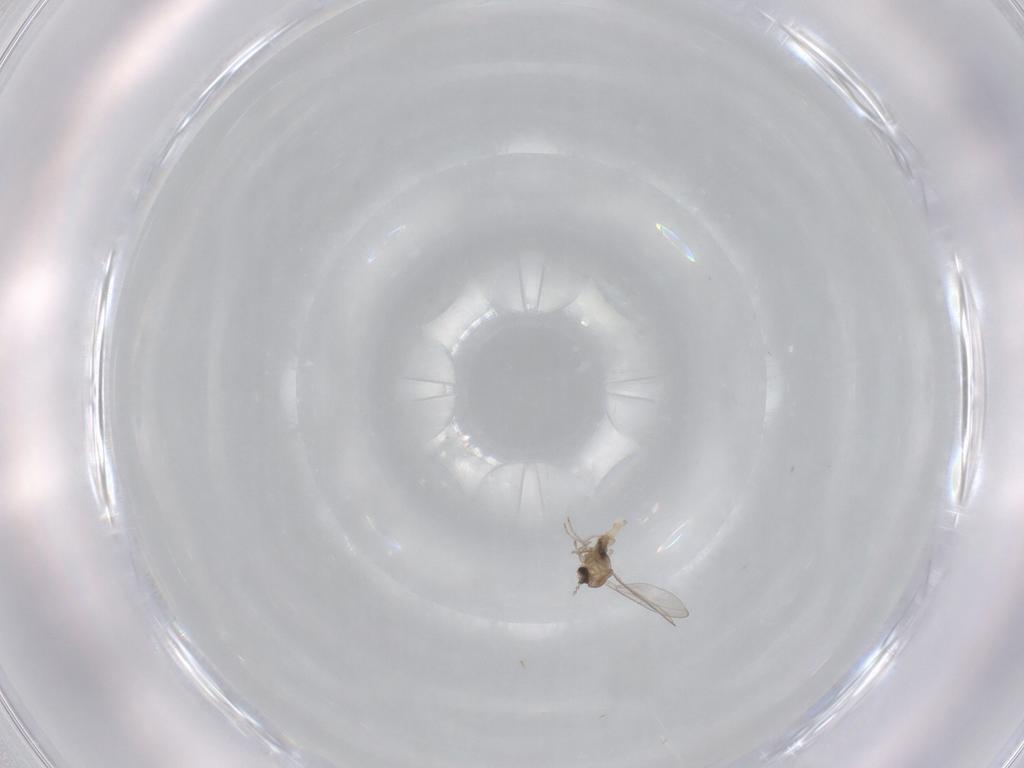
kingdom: Animalia
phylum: Arthropoda
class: Insecta
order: Diptera
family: Cecidomyiidae
